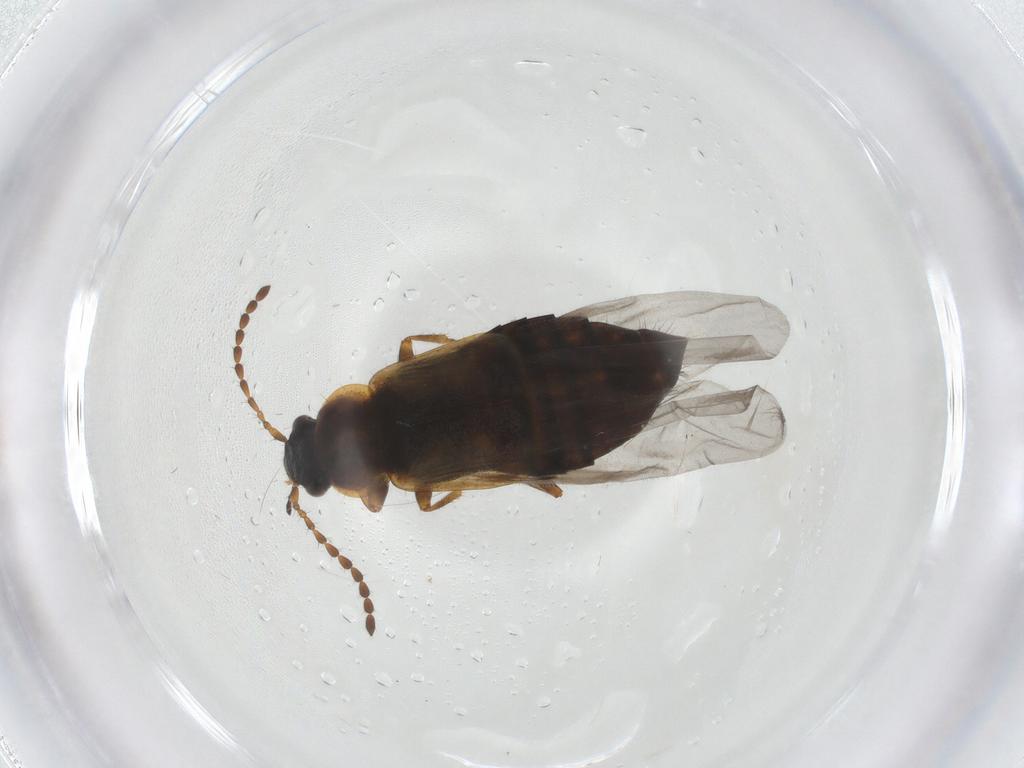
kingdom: Animalia
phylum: Arthropoda
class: Insecta
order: Coleoptera
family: Staphylinidae
